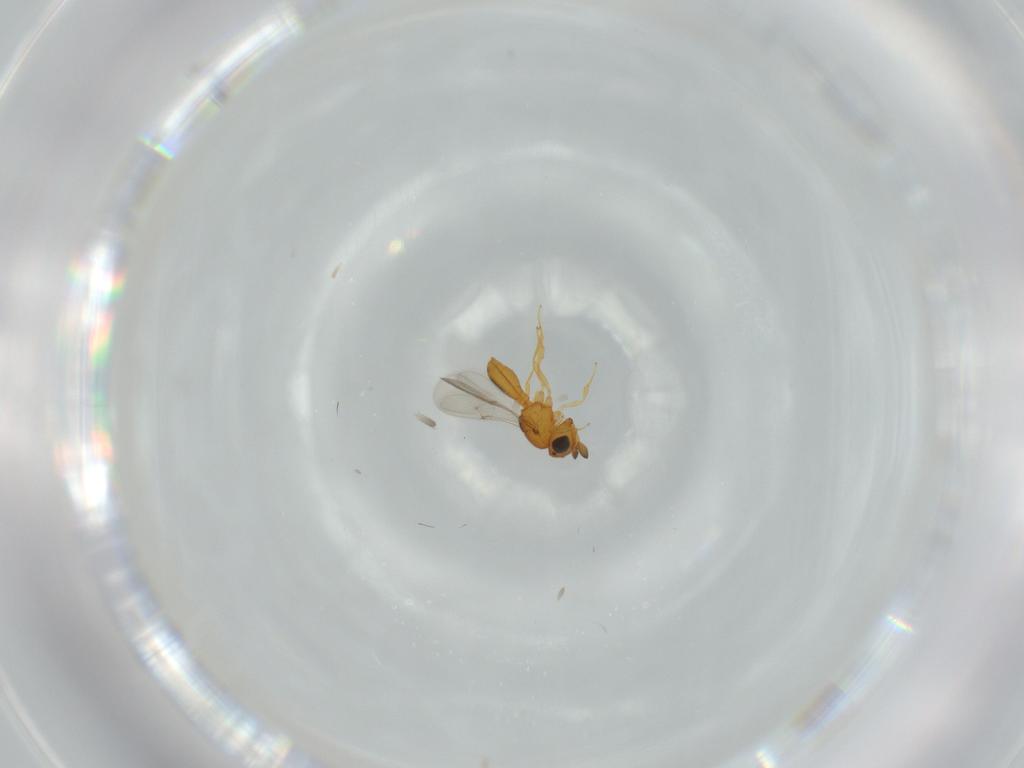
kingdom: Animalia
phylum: Arthropoda
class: Insecta
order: Hymenoptera
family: Scelionidae
